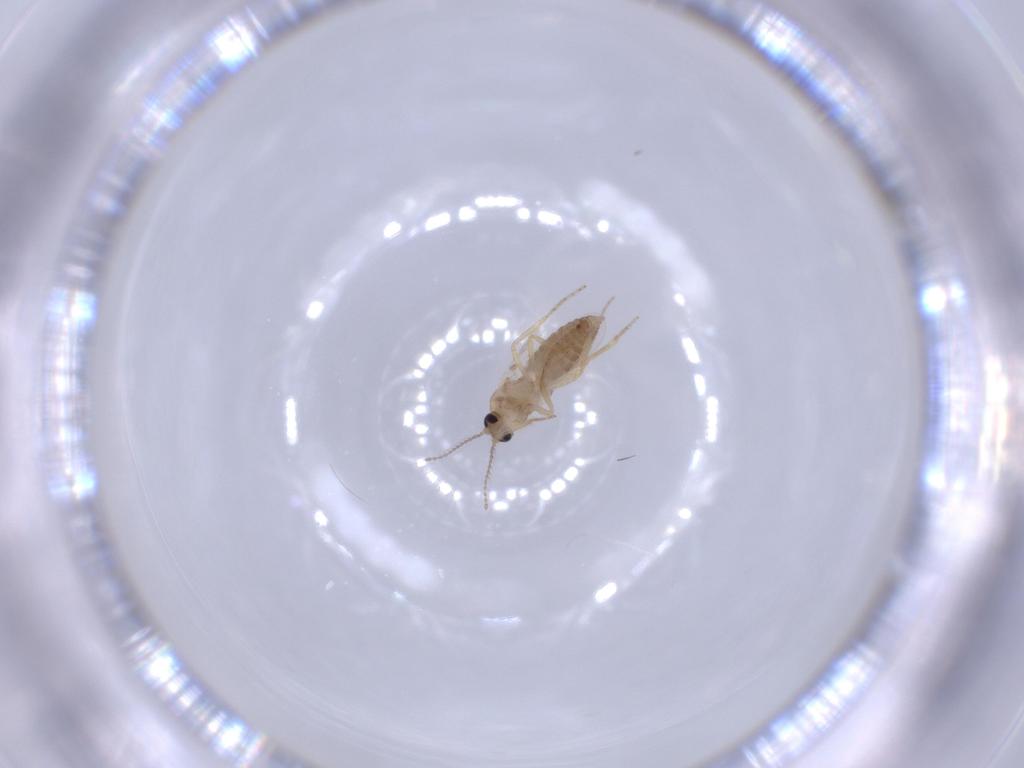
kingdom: Animalia
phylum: Arthropoda
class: Insecta
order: Diptera
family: Ceratopogonidae
